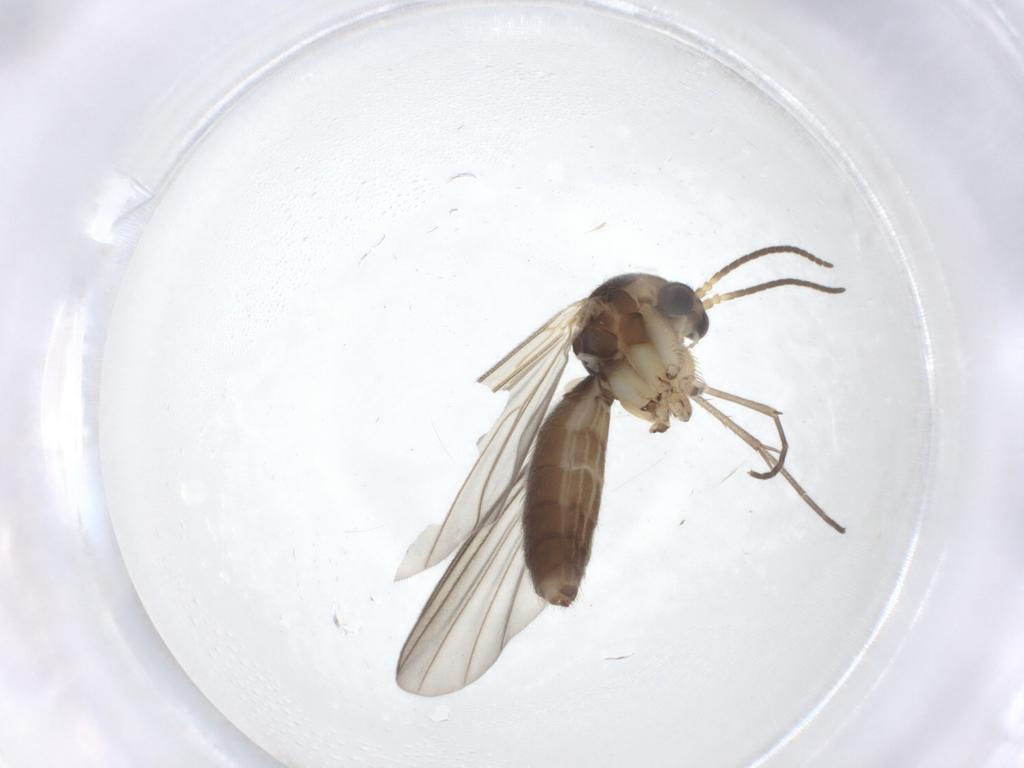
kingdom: Animalia
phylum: Arthropoda
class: Insecta
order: Diptera
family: Mycetophilidae
